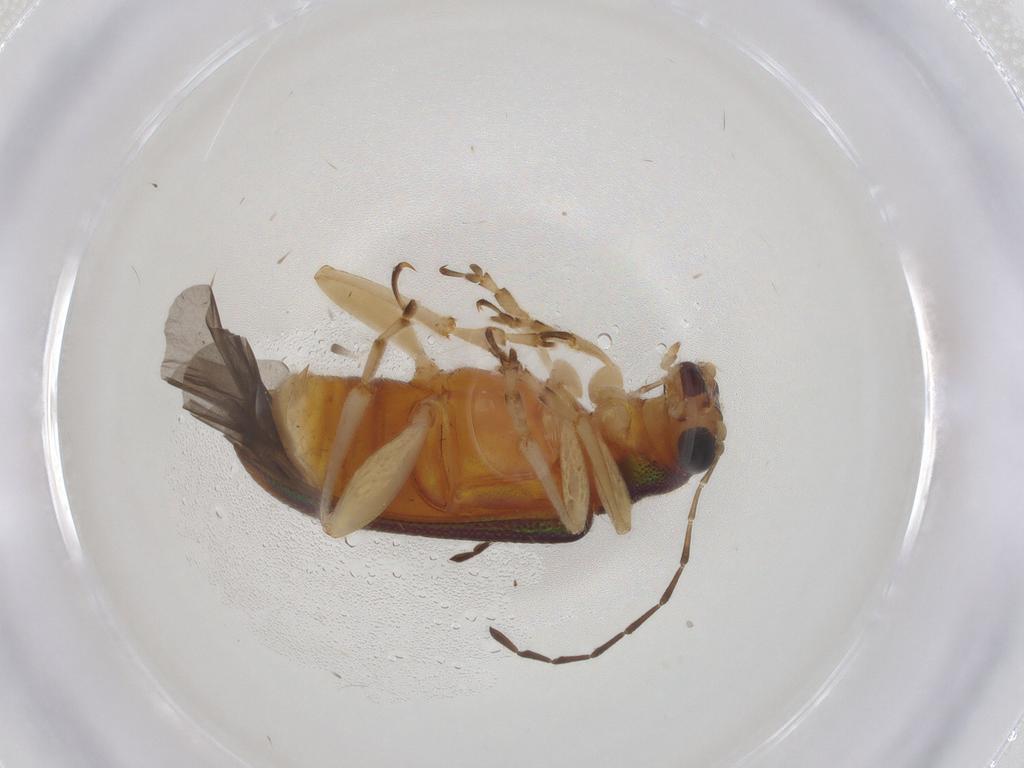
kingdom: Animalia
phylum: Arthropoda
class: Insecta
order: Coleoptera
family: Chrysomelidae
